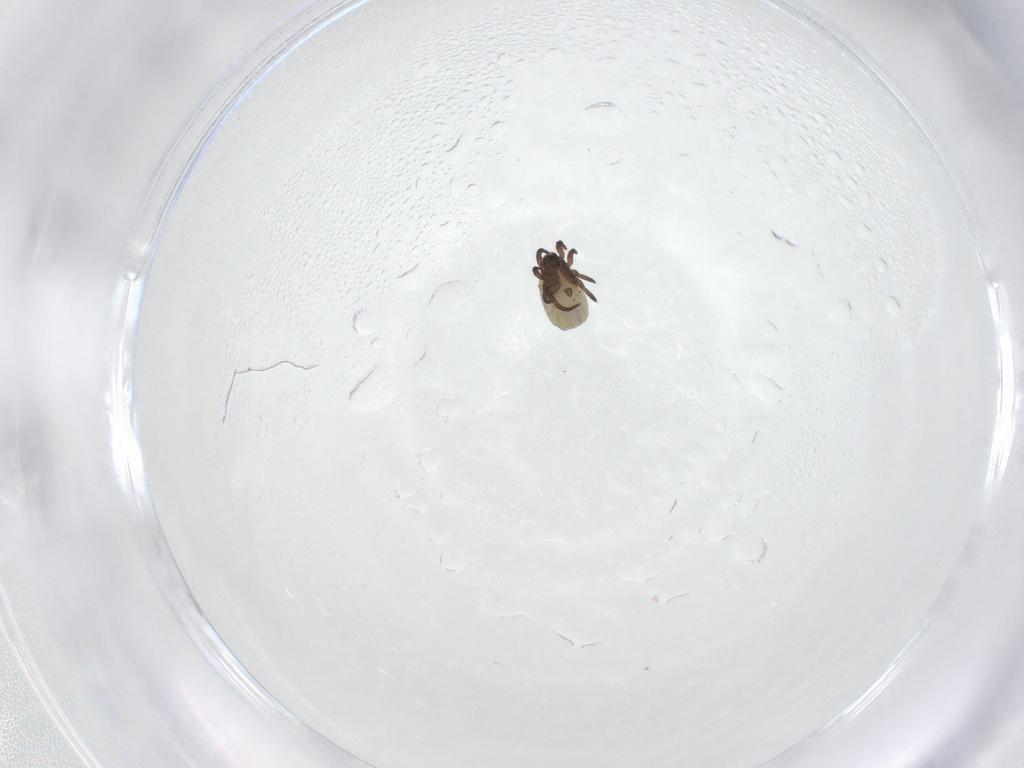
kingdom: Animalia
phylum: Arthropoda
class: Arachnida
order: Sarcoptiformes
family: Crotoniidae
